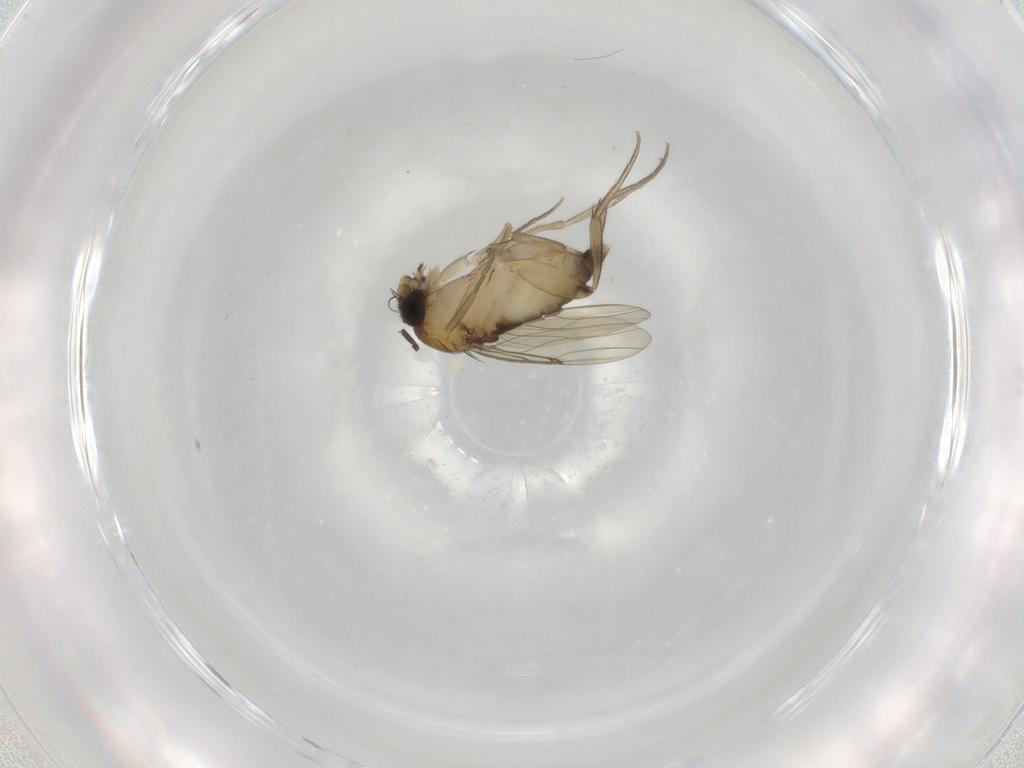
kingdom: Animalia
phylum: Arthropoda
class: Insecta
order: Diptera
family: Phoridae
